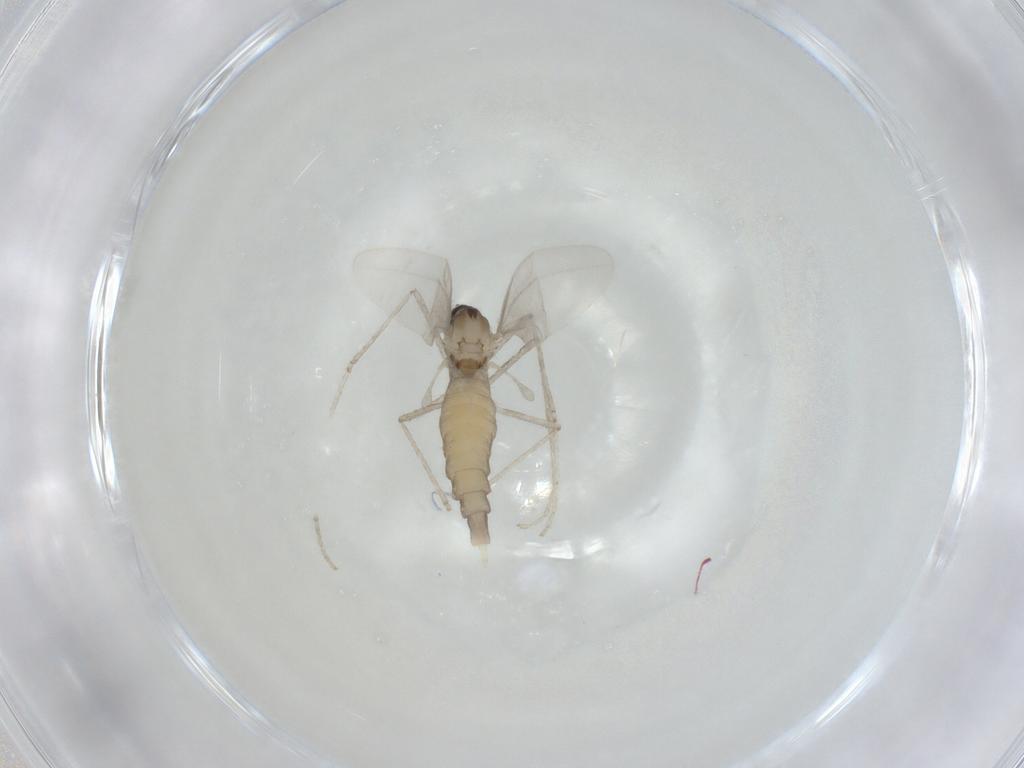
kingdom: Animalia
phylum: Arthropoda
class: Insecta
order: Diptera
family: Cecidomyiidae
